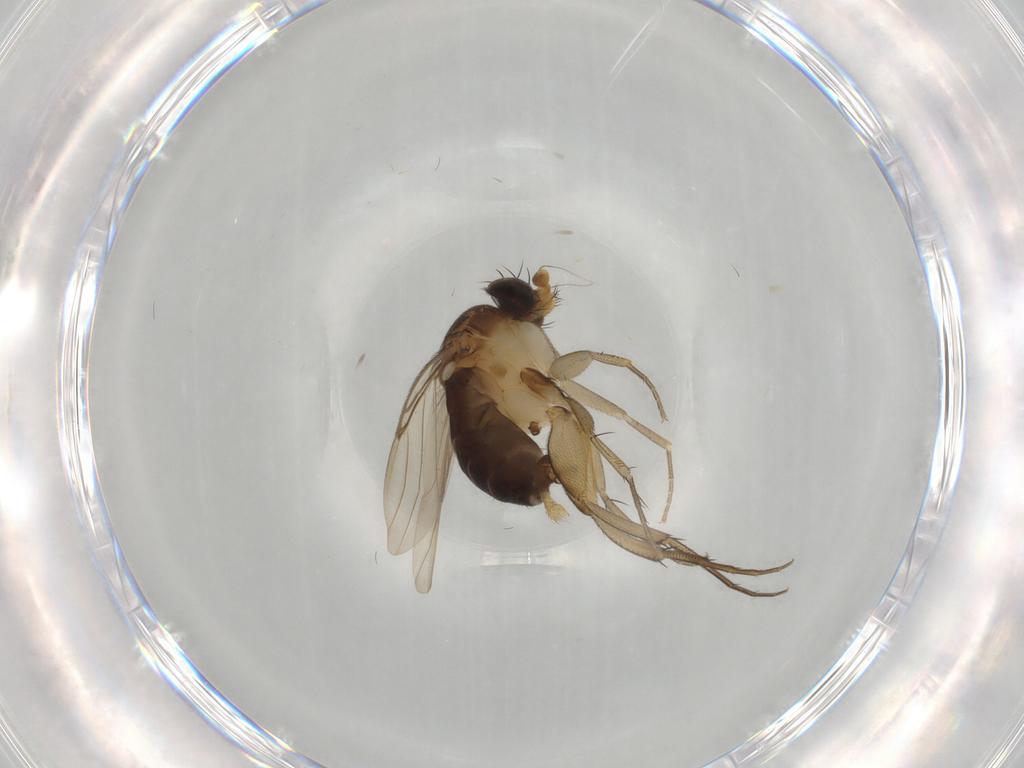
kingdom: Animalia
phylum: Arthropoda
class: Insecta
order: Diptera
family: Phoridae
